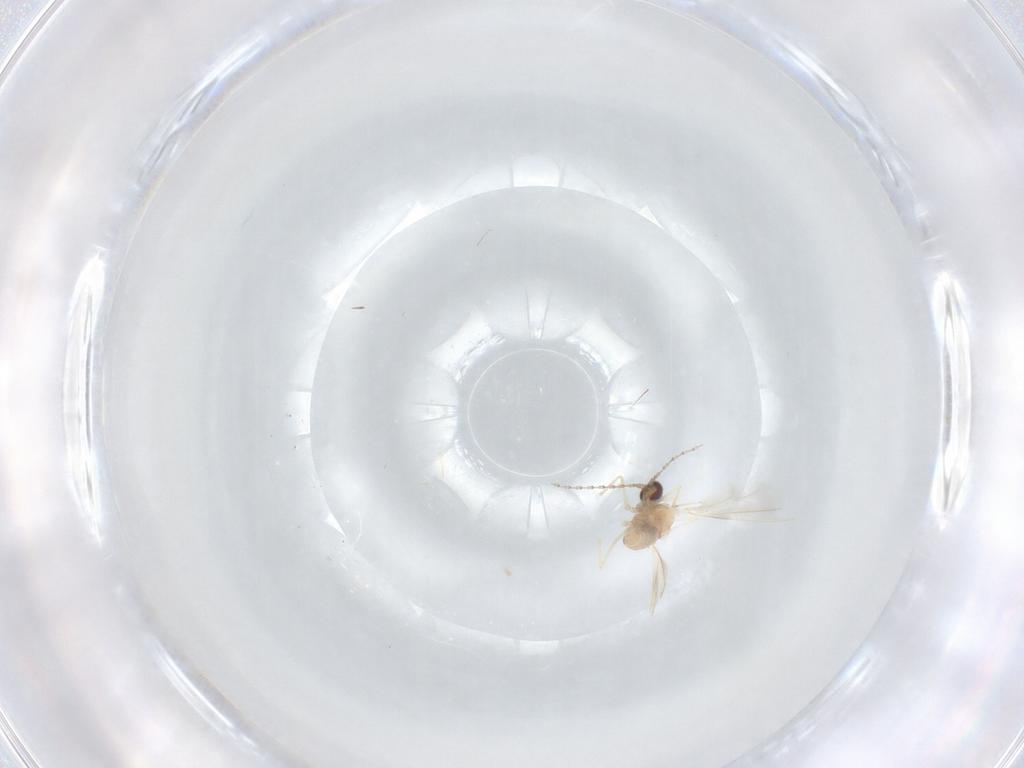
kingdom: Animalia
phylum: Arthropoda
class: Insecta
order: Diptera
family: Cecidomyiidae
